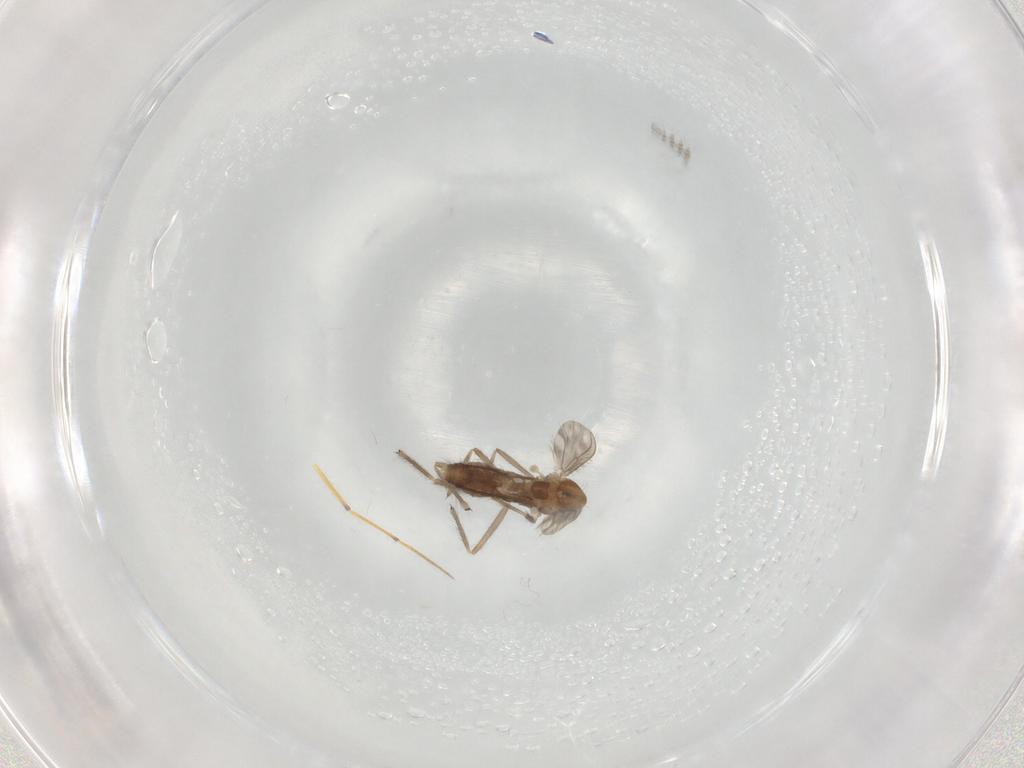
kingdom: Animalia
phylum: Arthropoda
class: Insecta
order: Diptera
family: Chironomidae
